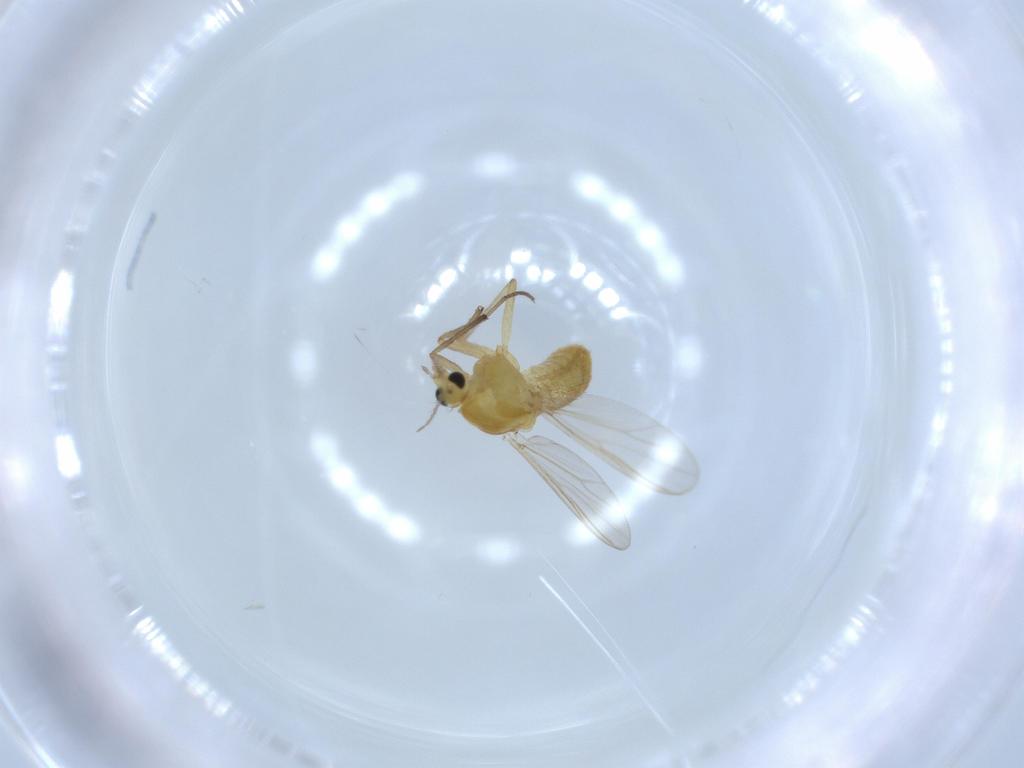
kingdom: Animalia
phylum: Arthropoda
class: Insecta
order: Diptera
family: Chironomidae
